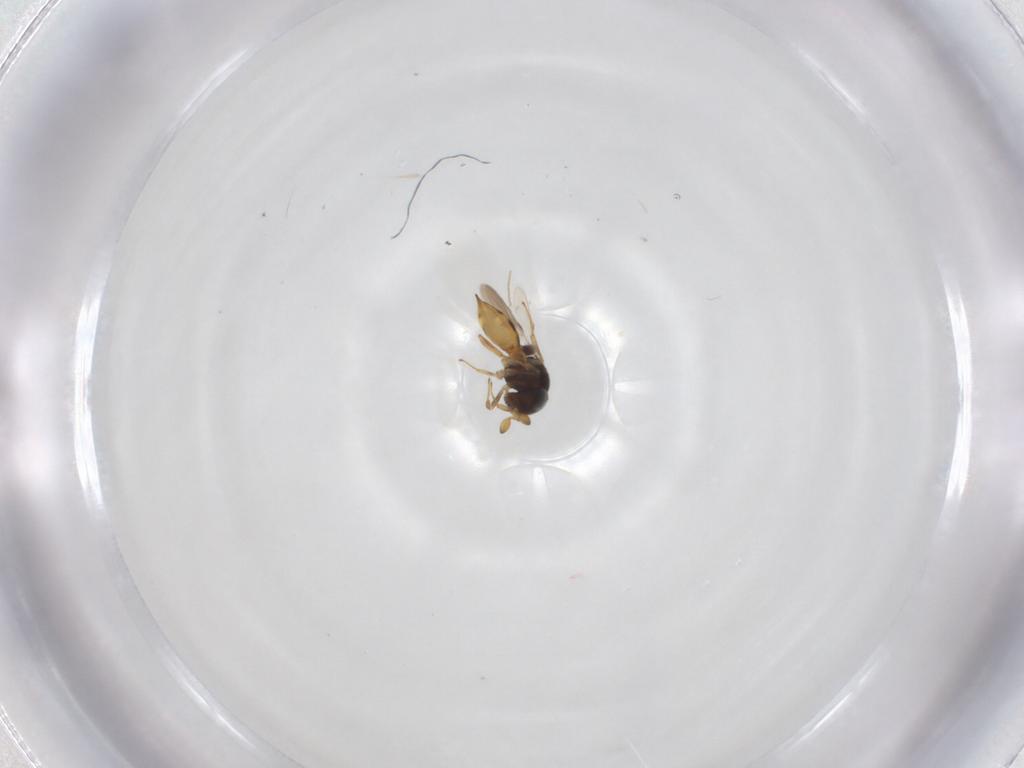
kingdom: Animalia
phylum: Arthropoda
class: Insecta
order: Hymenoptera
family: Scelionidae
